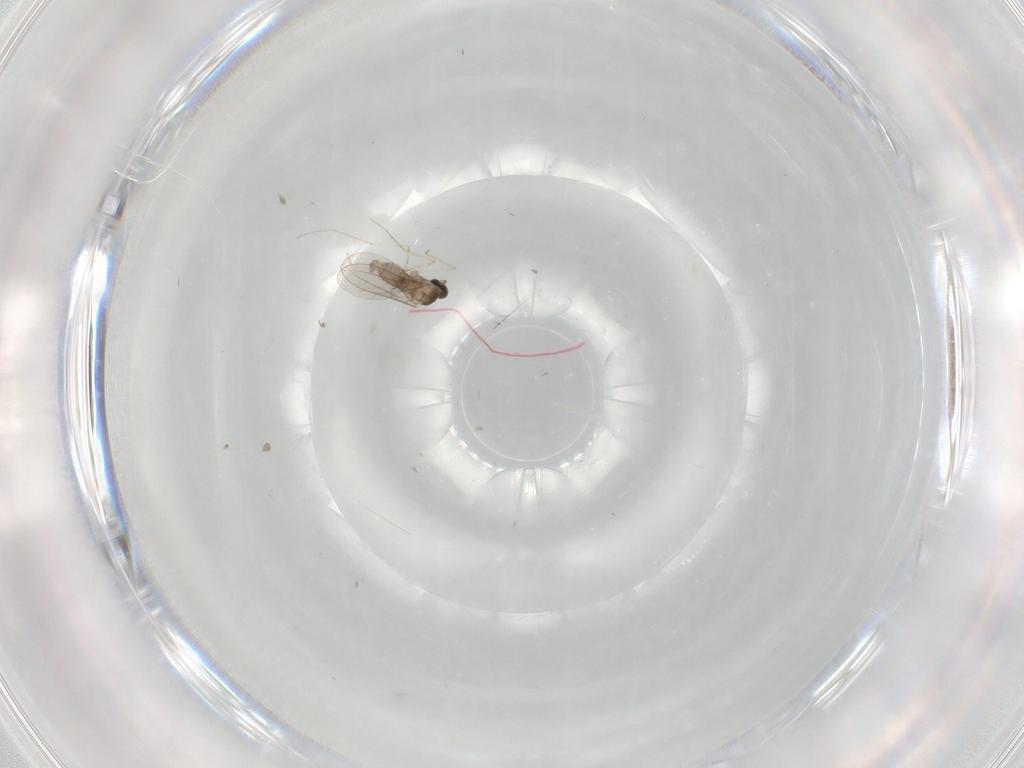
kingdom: Animalia
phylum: Arthropoda
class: Insecta
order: Diptera
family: Cecidomyiidae
